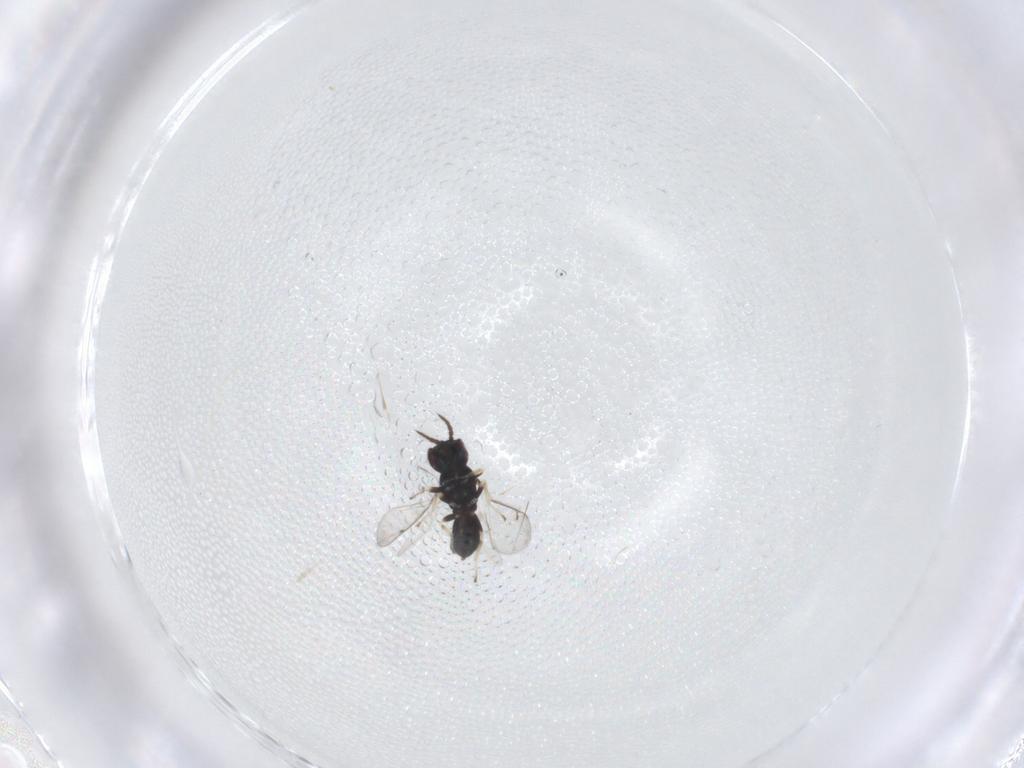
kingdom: Animalia
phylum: Arthropoda
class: Insecta
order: Hymenoptera
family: Eulophidae
